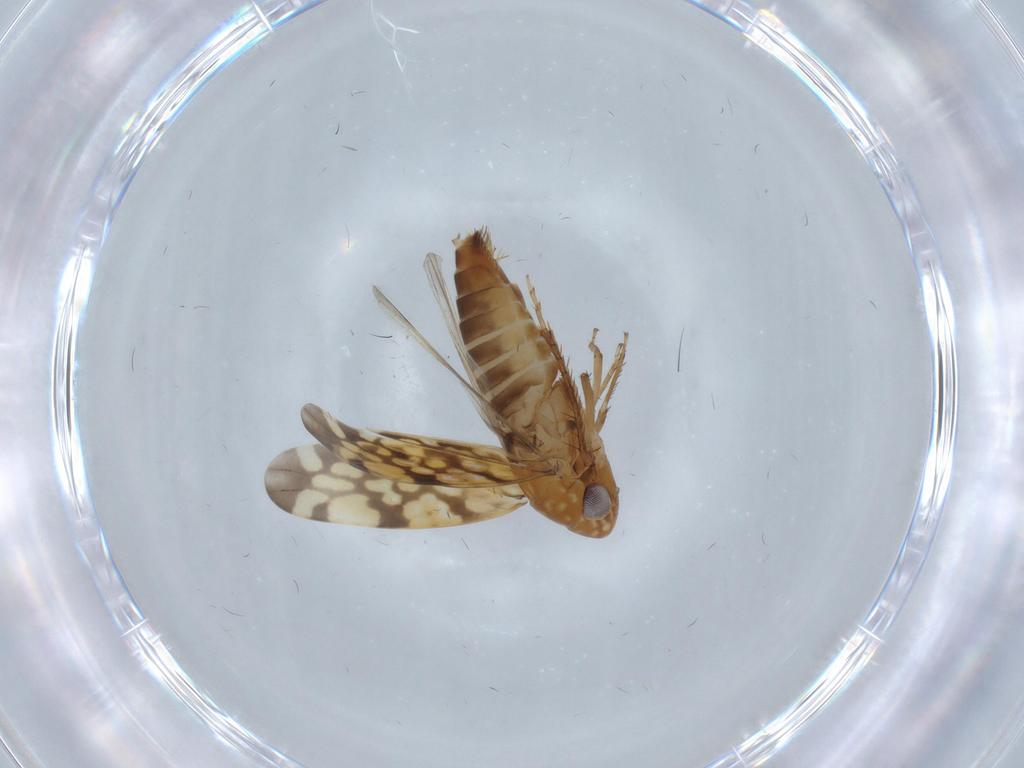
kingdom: Animalia
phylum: Arthropoda
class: Insecta
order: Hemiptera
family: Cicadellidae
